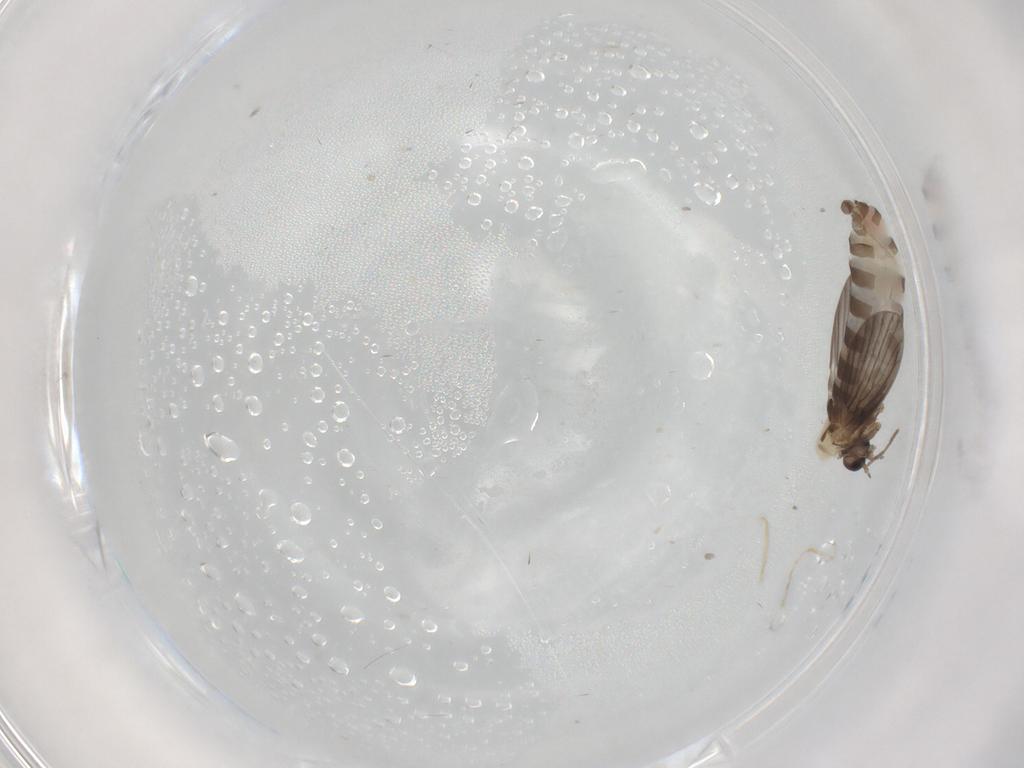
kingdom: Animalia
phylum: Arthropoda
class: Insecta
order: Diptera
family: Phoridae
